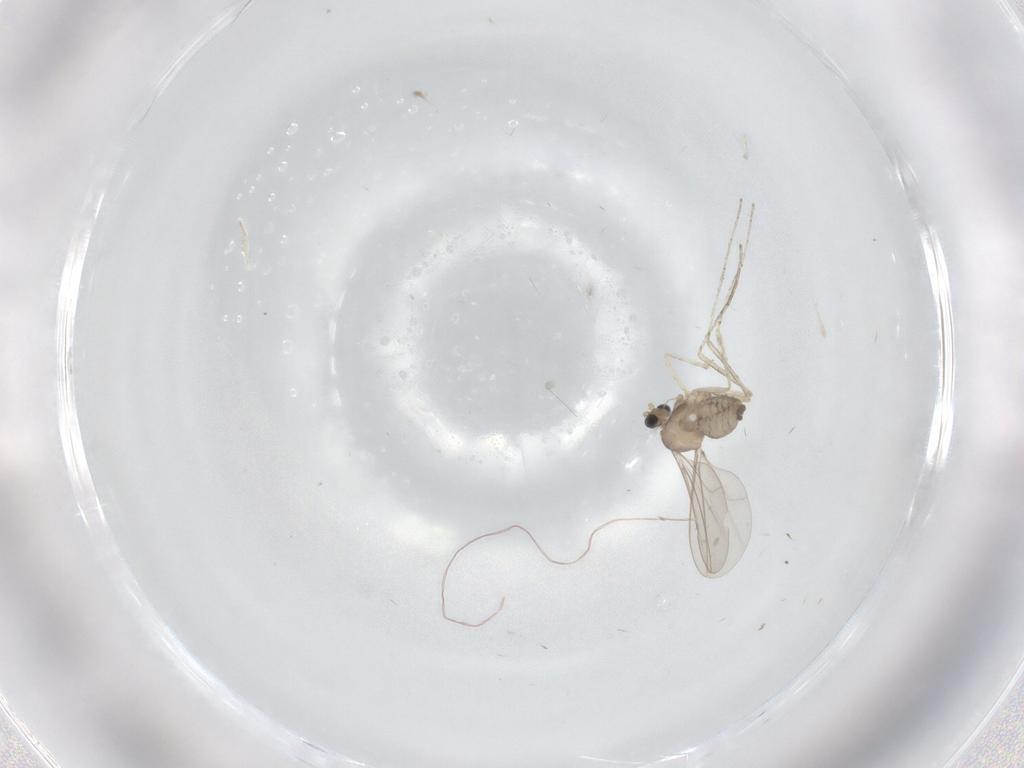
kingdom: Animalia
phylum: Arthropoda
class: Insecta
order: Diptera
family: Cecidomyiidae
